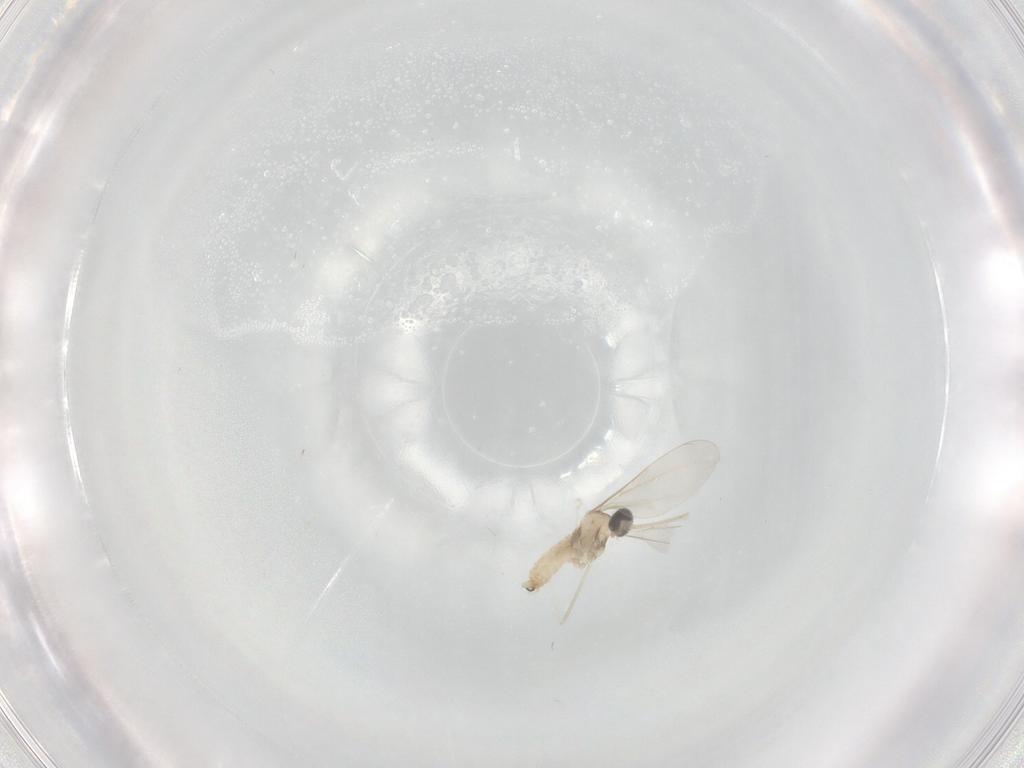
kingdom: Animalia
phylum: Arthropoda
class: Insecta
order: Diptera
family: Cecidomyiidae
